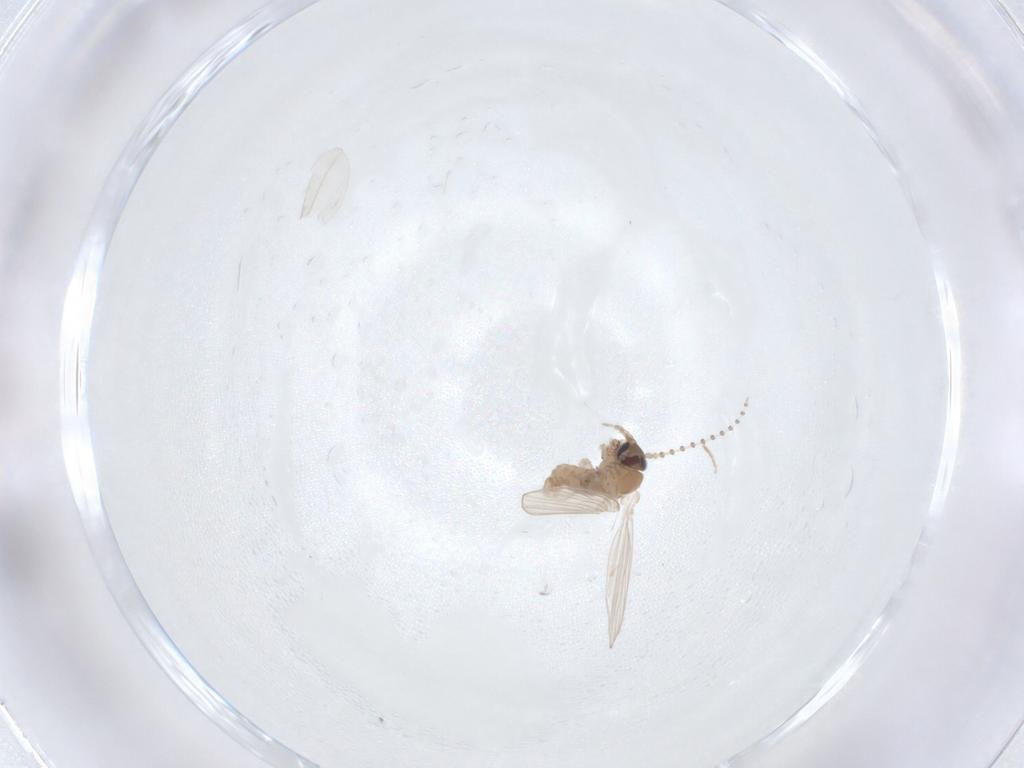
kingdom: Animalia
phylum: Arthropoda
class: Insecta
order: Diptera
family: Phoridae
